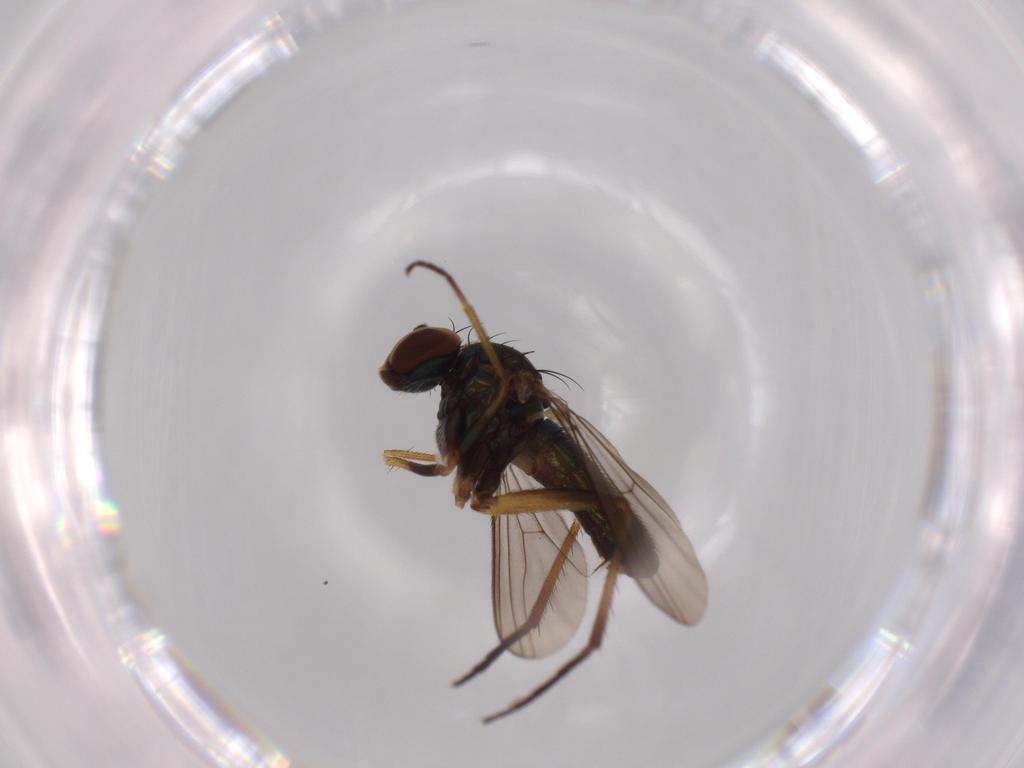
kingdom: Animalia
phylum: Arthropoda
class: Insecta
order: Diptera
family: Dolichopodidae
